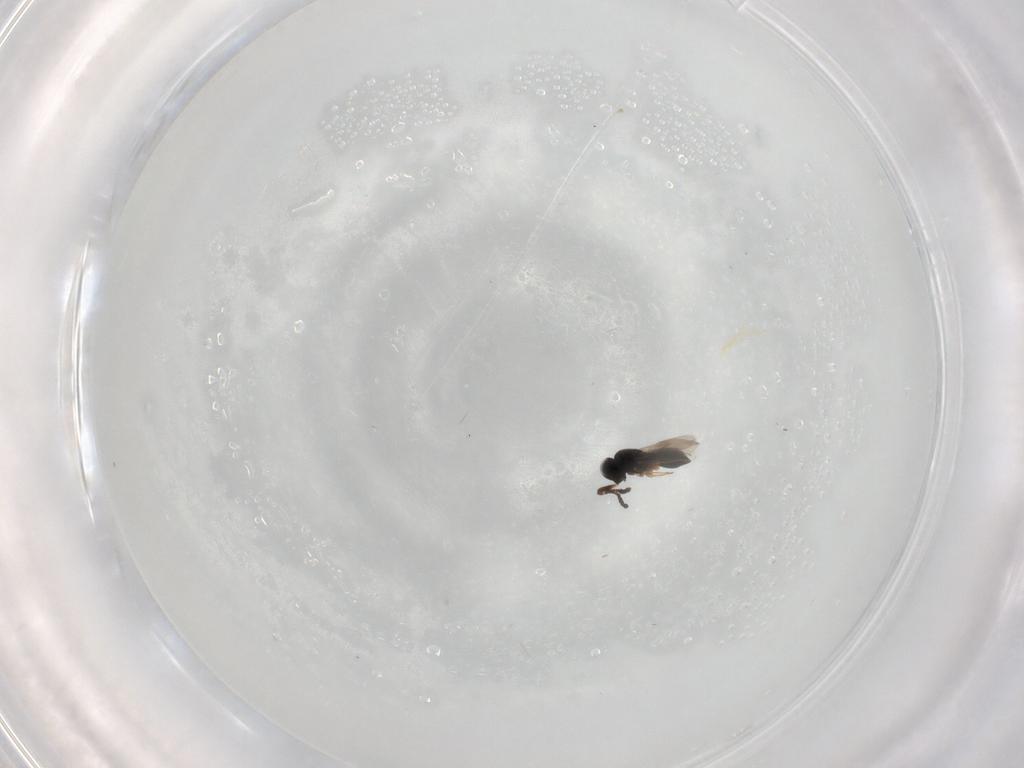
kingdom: Animalia
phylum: Arthropoda
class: Insecta
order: Hymenoptera
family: Scelionidae
